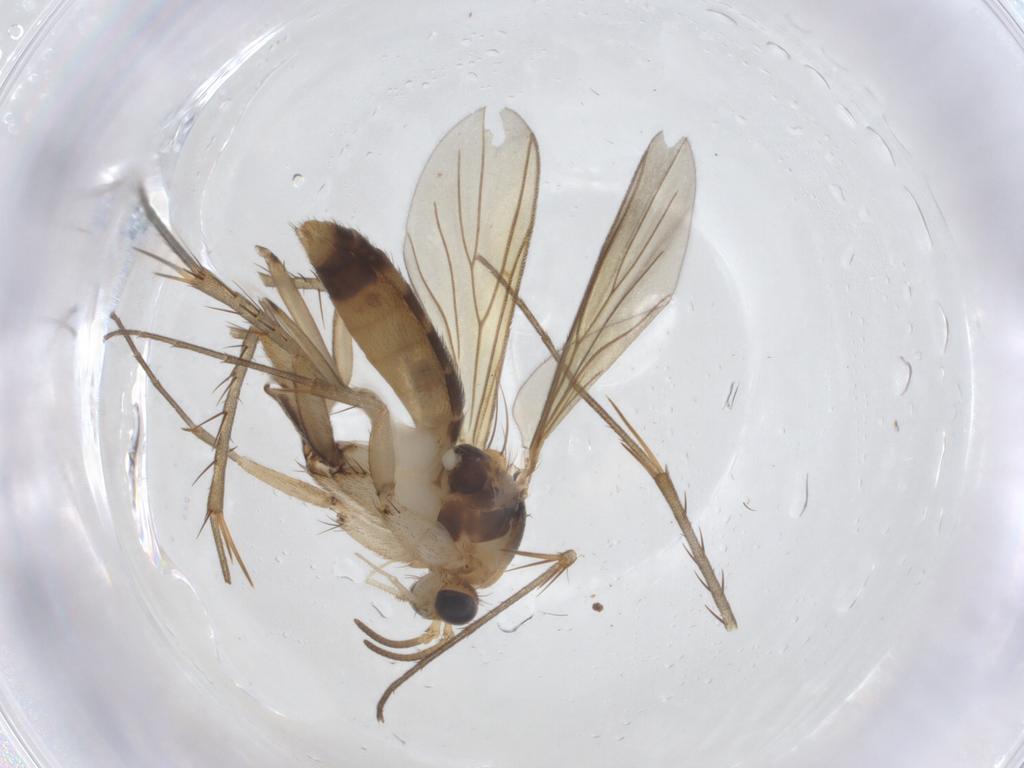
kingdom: Animalia
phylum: Arthropoda
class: Insecta
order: Diptera
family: Mycetophilidae
